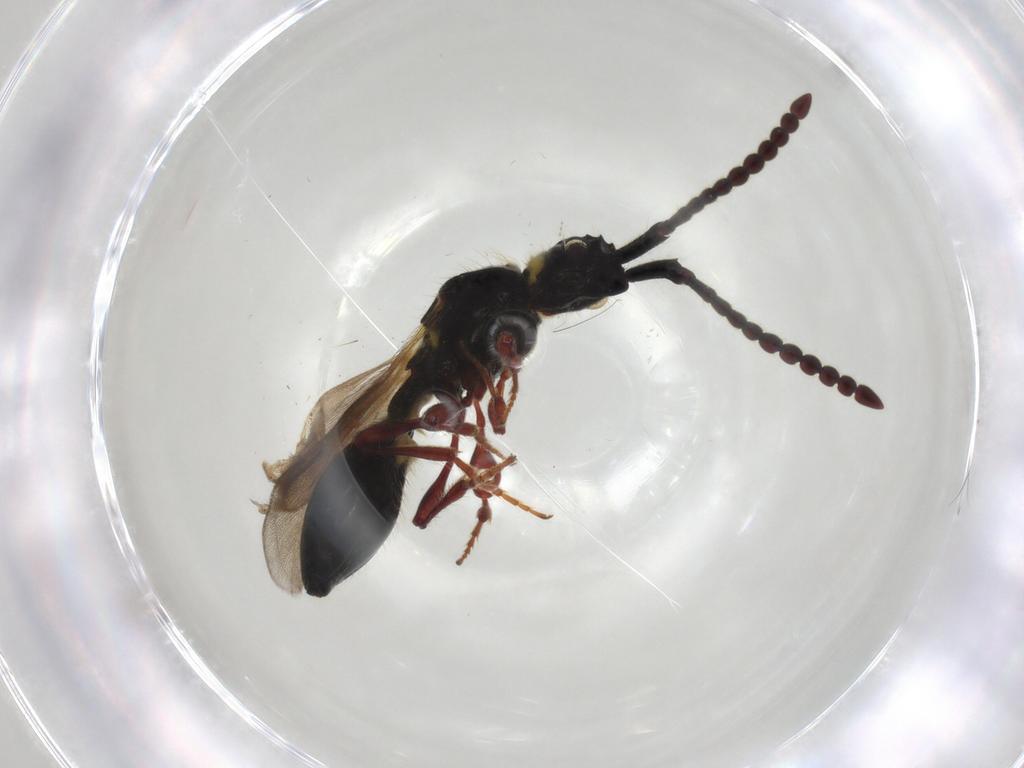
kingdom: Animalia
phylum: Arthropoda
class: Insecta
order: Hymenoptera
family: Diapriidae
